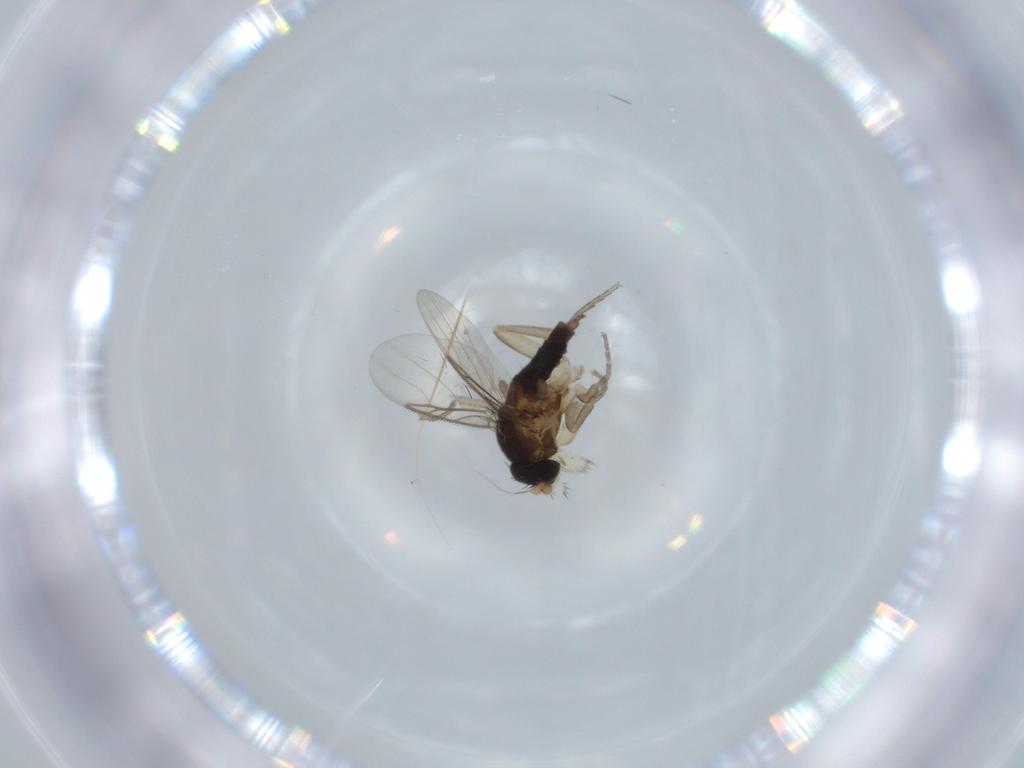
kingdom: Animalia
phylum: Arthropoda
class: Insecta
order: Diptera
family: Phoridae
